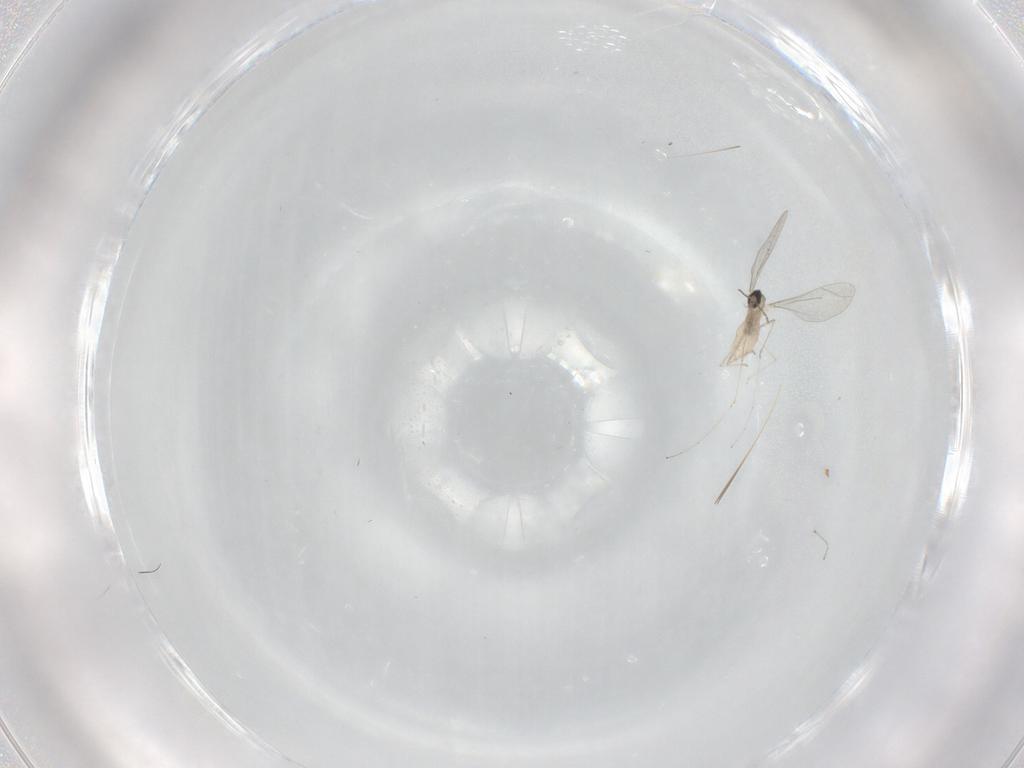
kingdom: Animalia
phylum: Arthropoda
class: Insecta
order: Diptera
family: Cecidomyiidae
